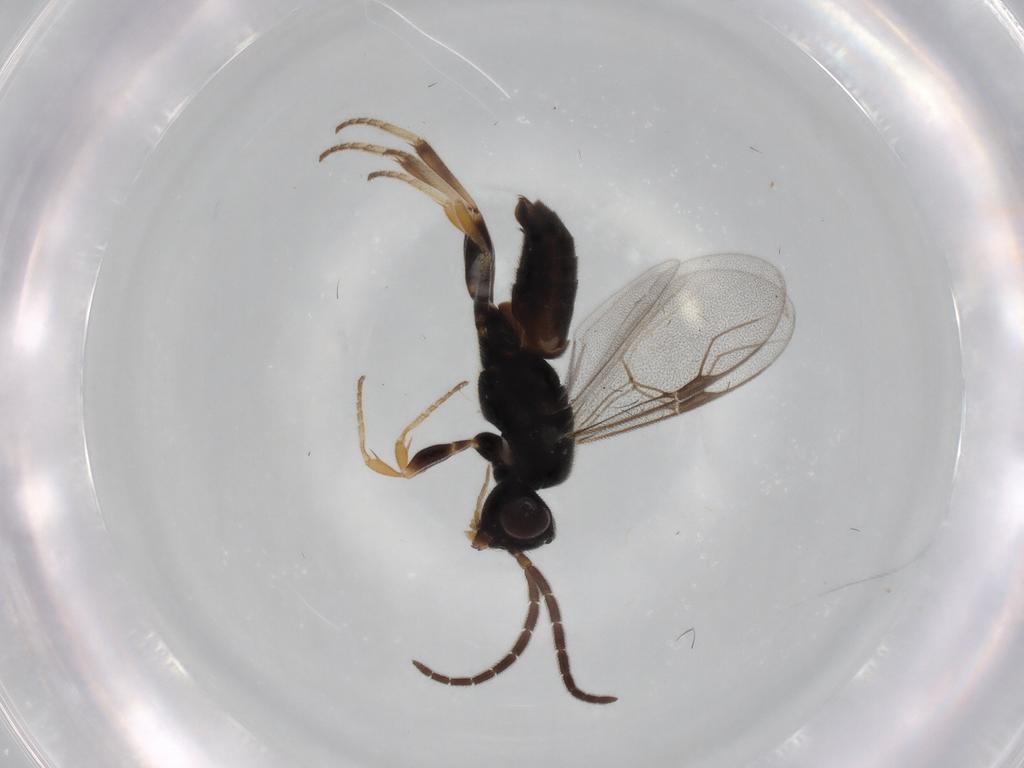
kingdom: Animalia
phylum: Arthropoda
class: Insecta
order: Hymenoptera
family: Dryinidae
